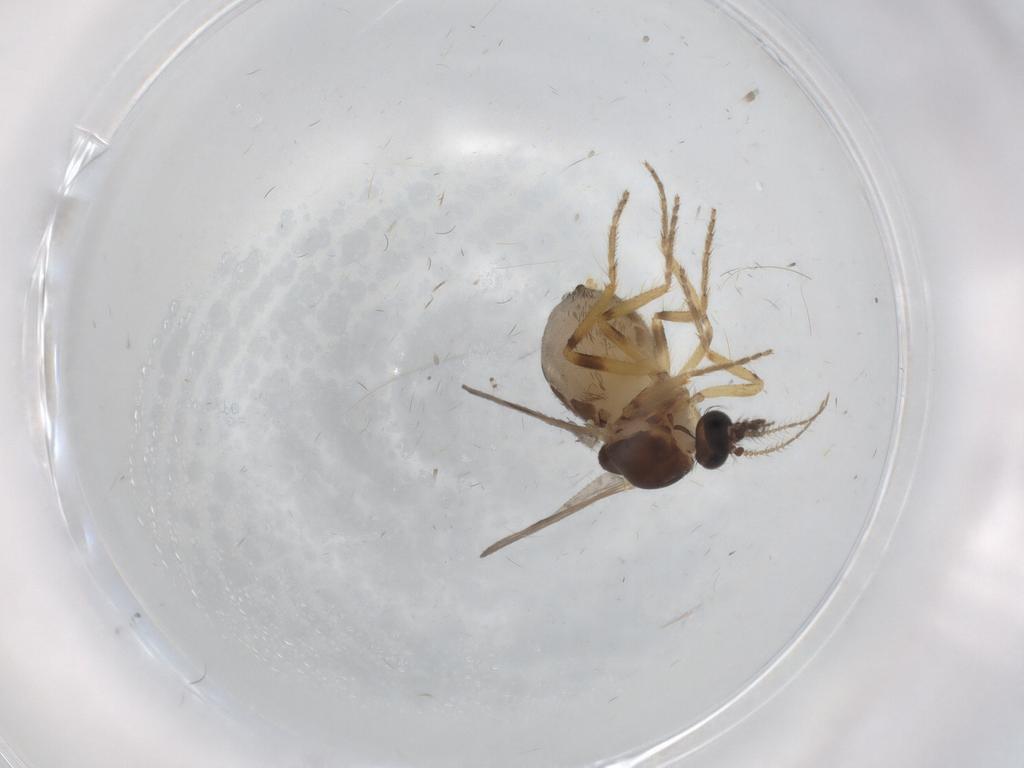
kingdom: Animalia
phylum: Arthropoda
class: Insecta
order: Diptera
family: Ceratopogonidae
